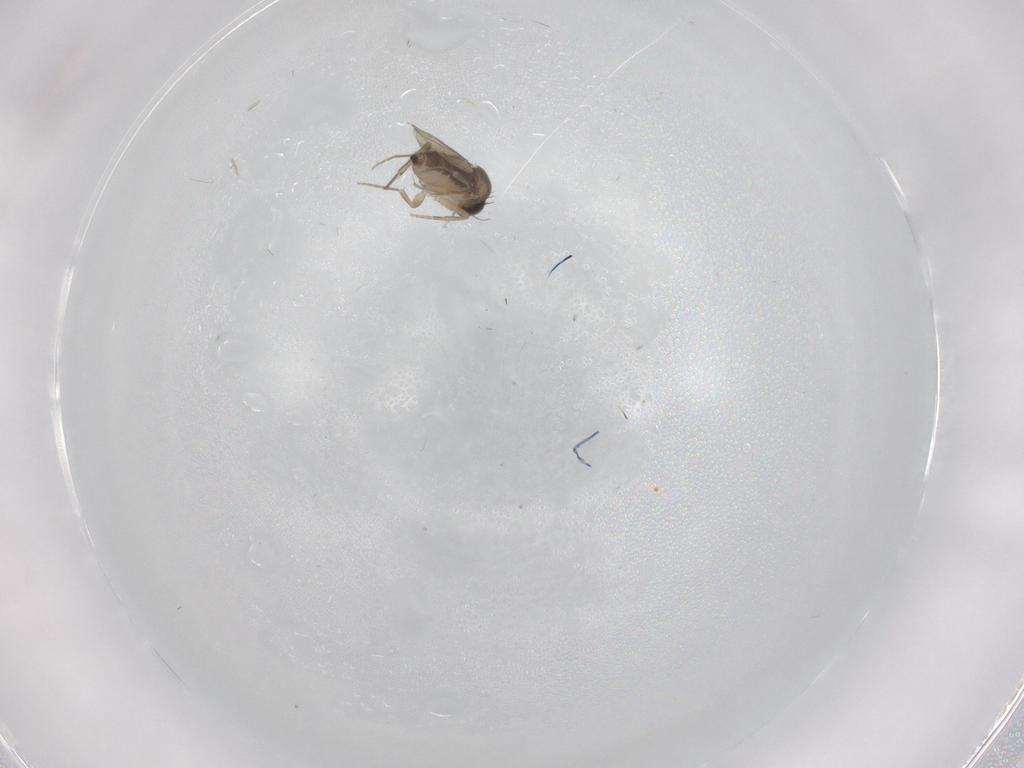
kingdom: Animalia
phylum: Arthropoda
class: Insecta
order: Diptera
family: Phoridae
